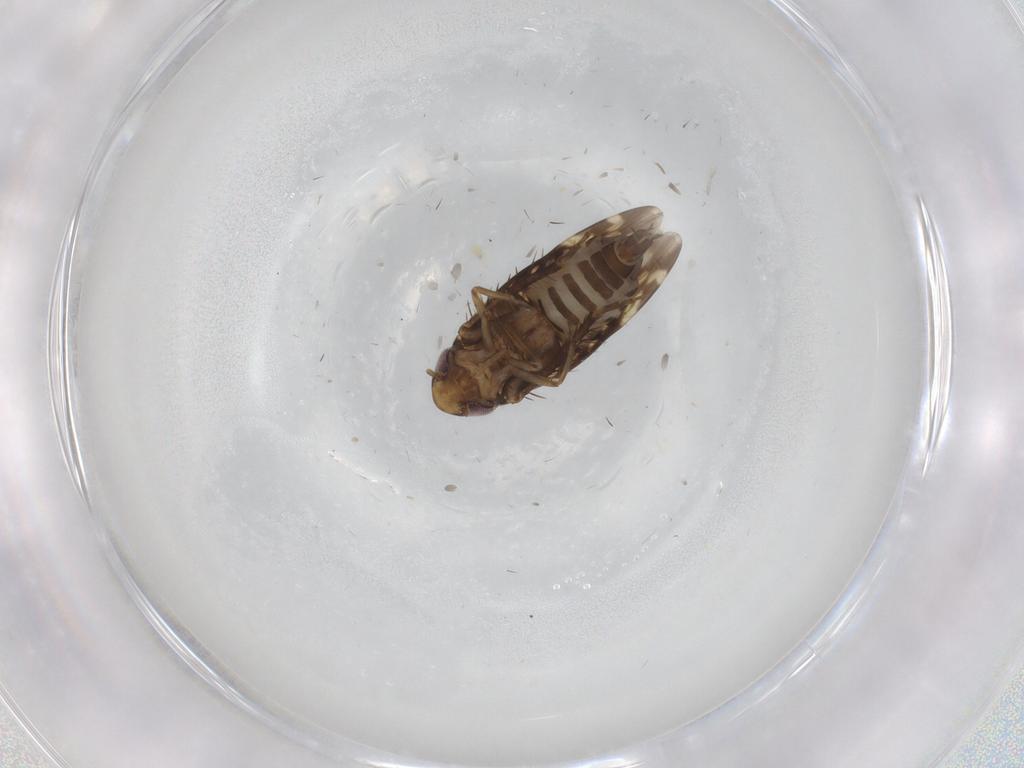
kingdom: Animalia
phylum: Arthropoda
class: Insecta
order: Hemiptera
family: Cicadellidae
